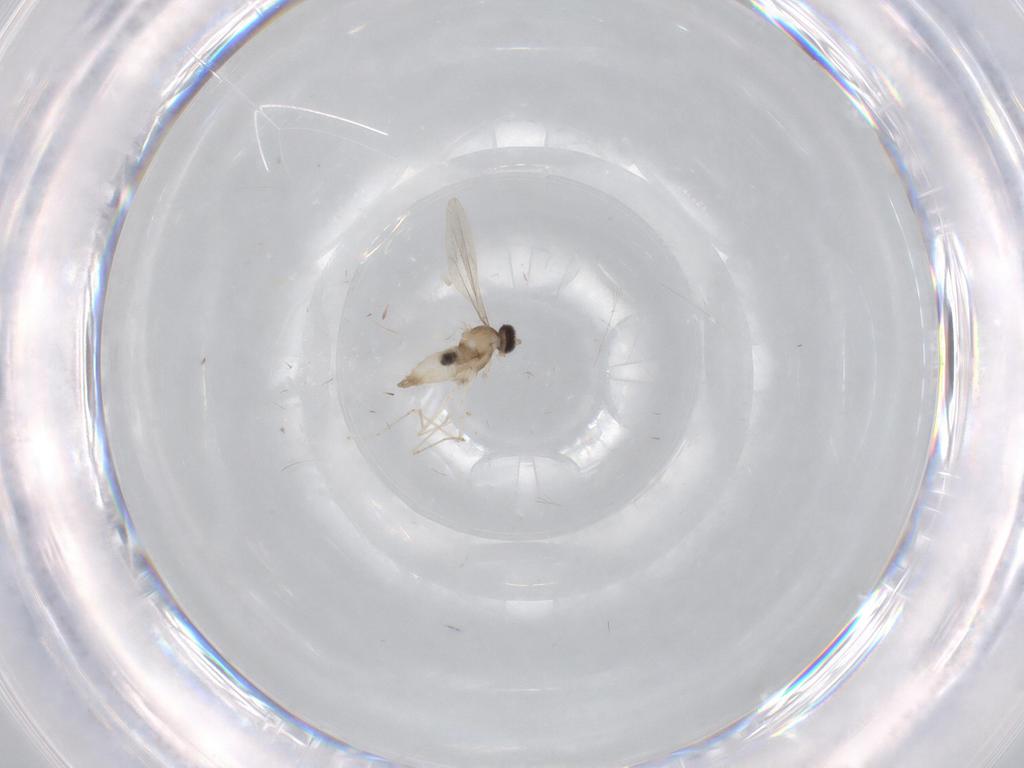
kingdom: Animalia
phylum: Arthropoda
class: Insecta
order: Diptera
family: Cecidomyiidae
